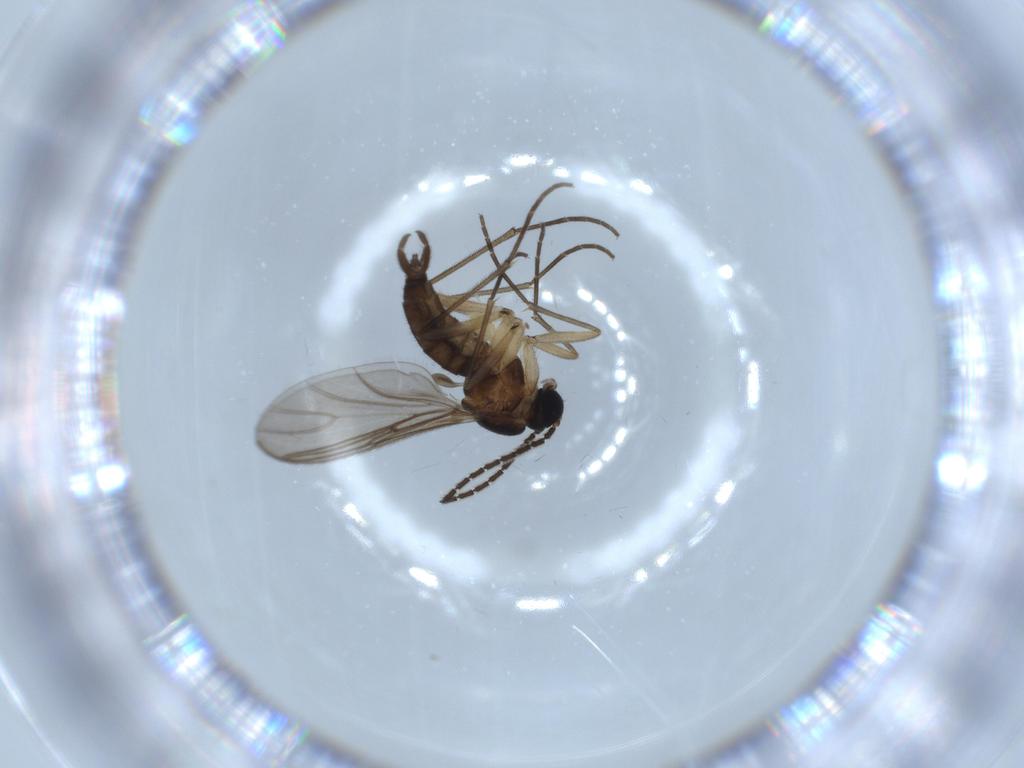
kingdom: Animalia
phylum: Arthropoda
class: Insecta
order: Diptera
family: Sciaridae
